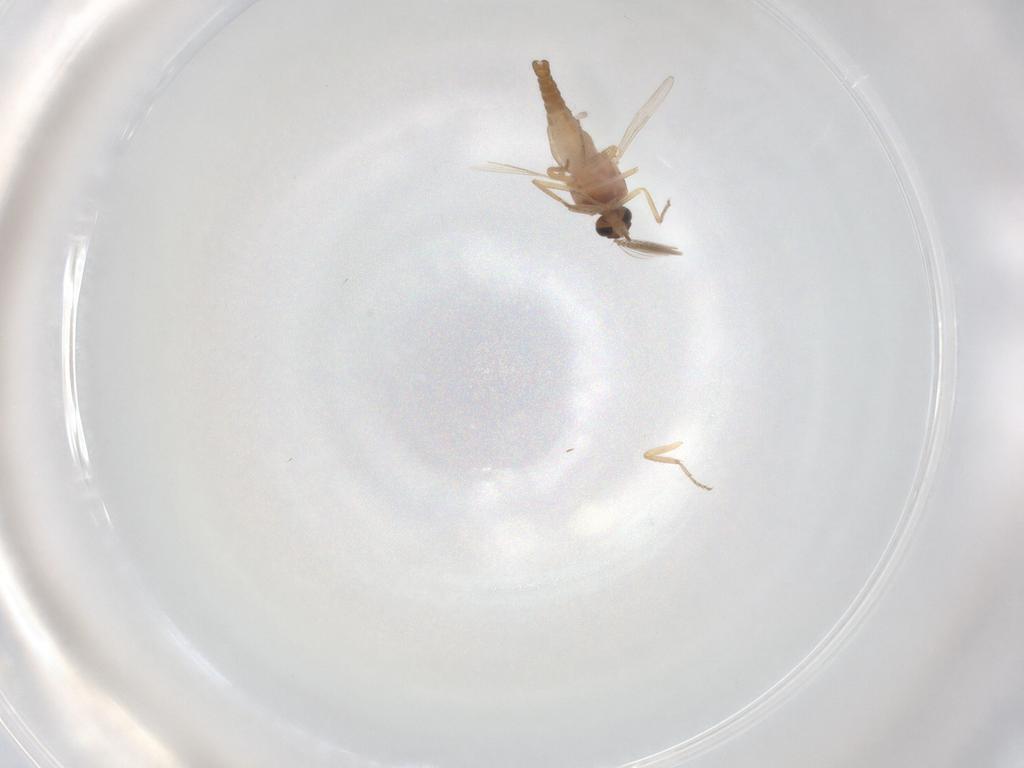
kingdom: Animalia
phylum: Arthropoda
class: Insecta
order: Diptera
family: Ceratopogonidae
